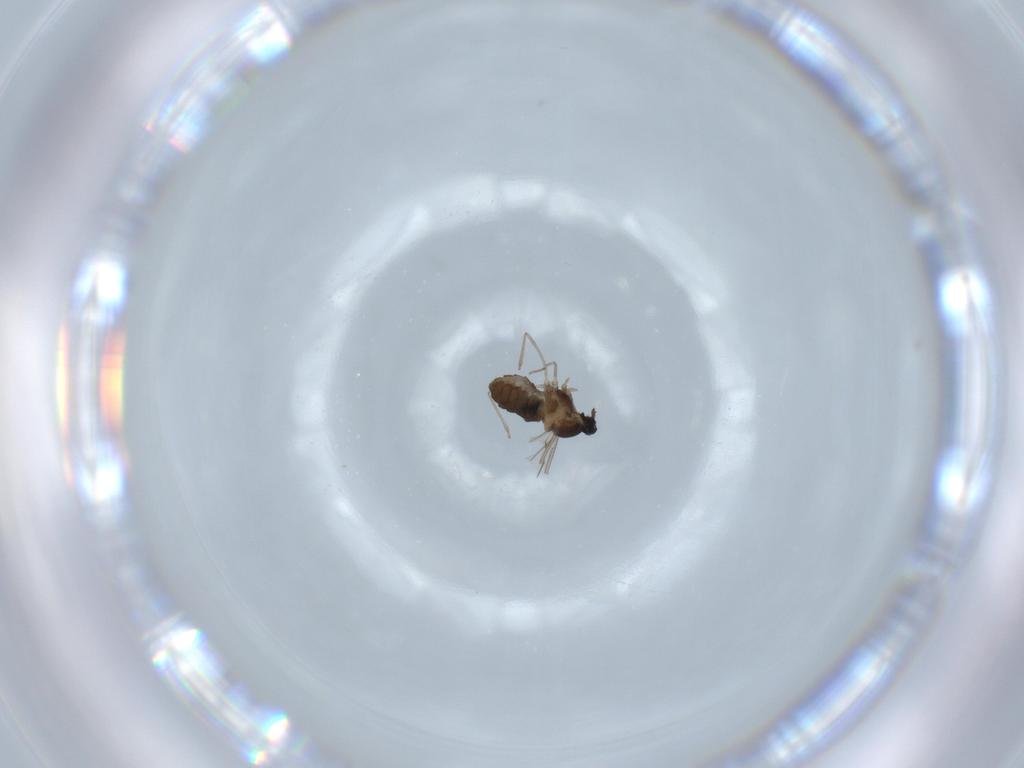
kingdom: Animalia
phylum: Arthropoda
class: Insecta
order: Diptera
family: Cecidomyiidae
